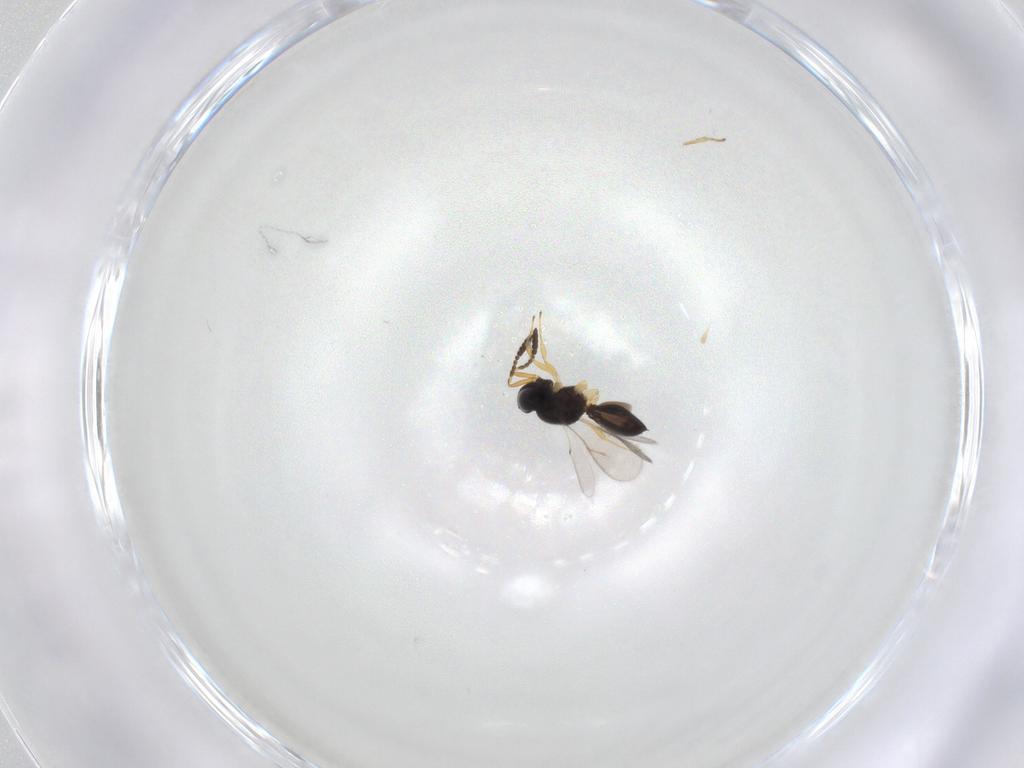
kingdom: Animalia
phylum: Arthropoda
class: Insecta
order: Hymenoptera
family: Scelionidae
